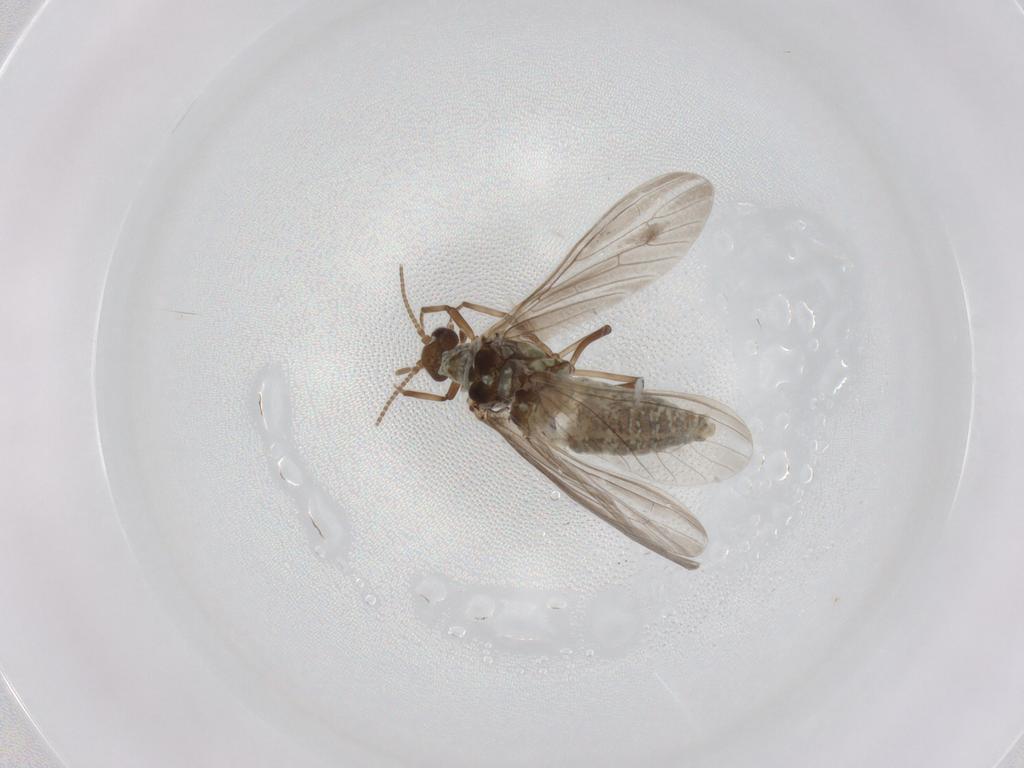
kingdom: Animalia
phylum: Arthropoda
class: Insecta
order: Neuroptera
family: Coniopterygidae
